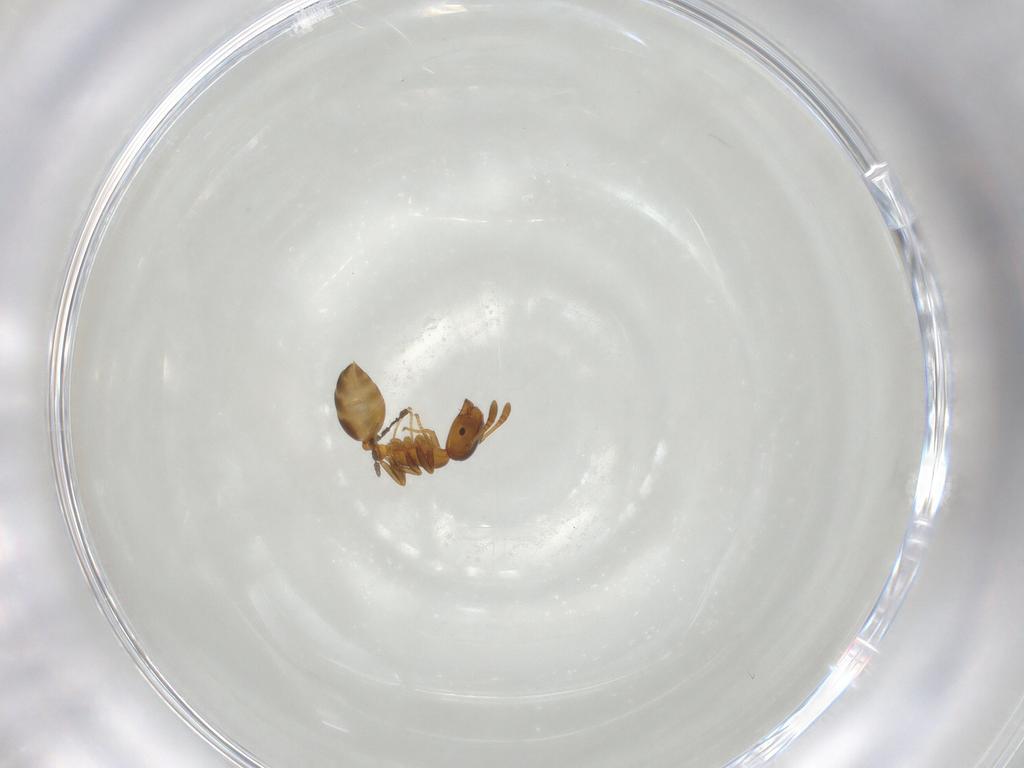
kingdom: Animalia
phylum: Arthropoda
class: Insecta
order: Hymenoptera
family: Formicidae
